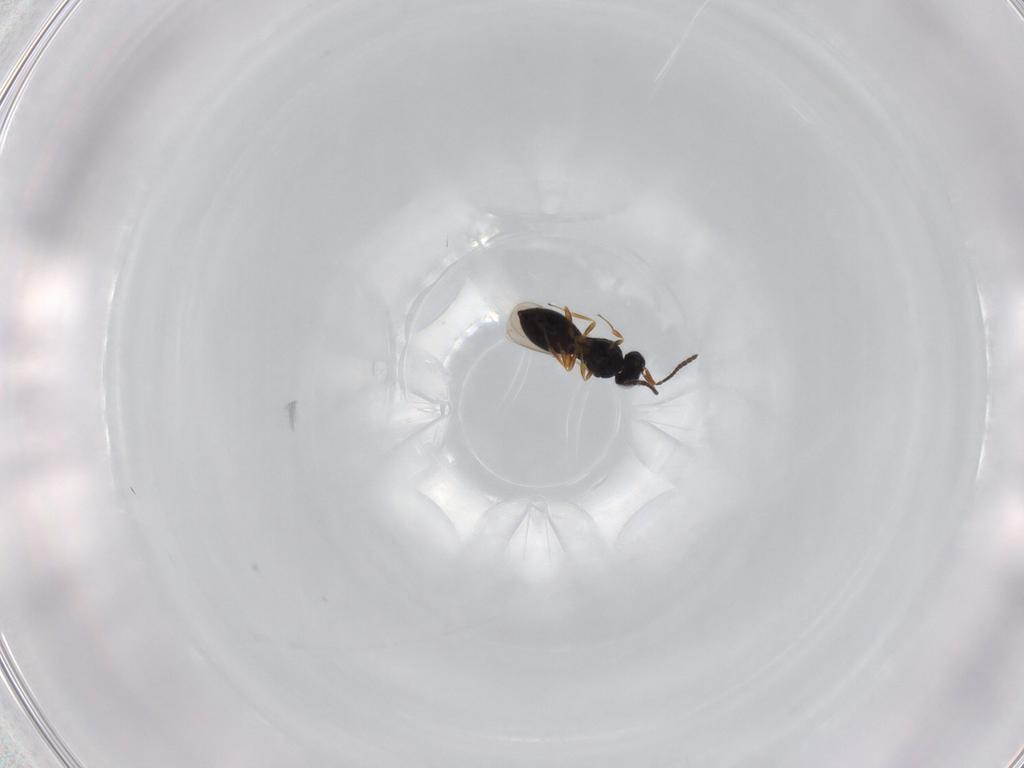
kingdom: Animalia
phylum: Arthropoda
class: Insecta
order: Hymenoptera
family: Scelionidae
